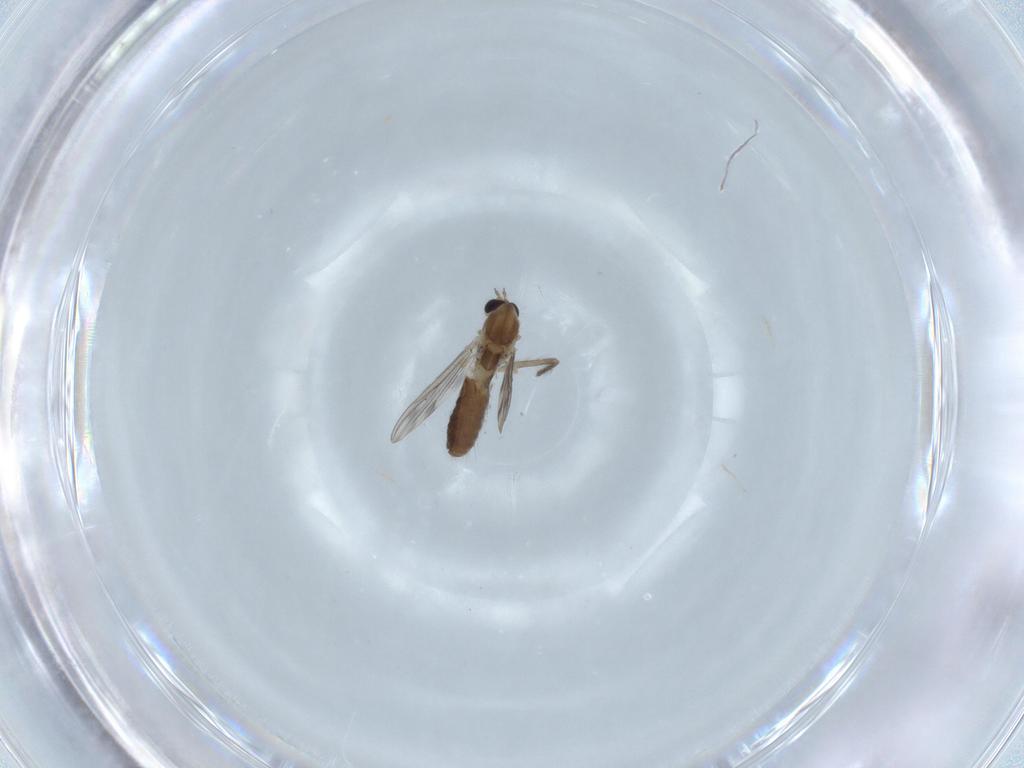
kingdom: Animalia
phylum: Arthropoda
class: Insecta
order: Diptera
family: Chironomidae
